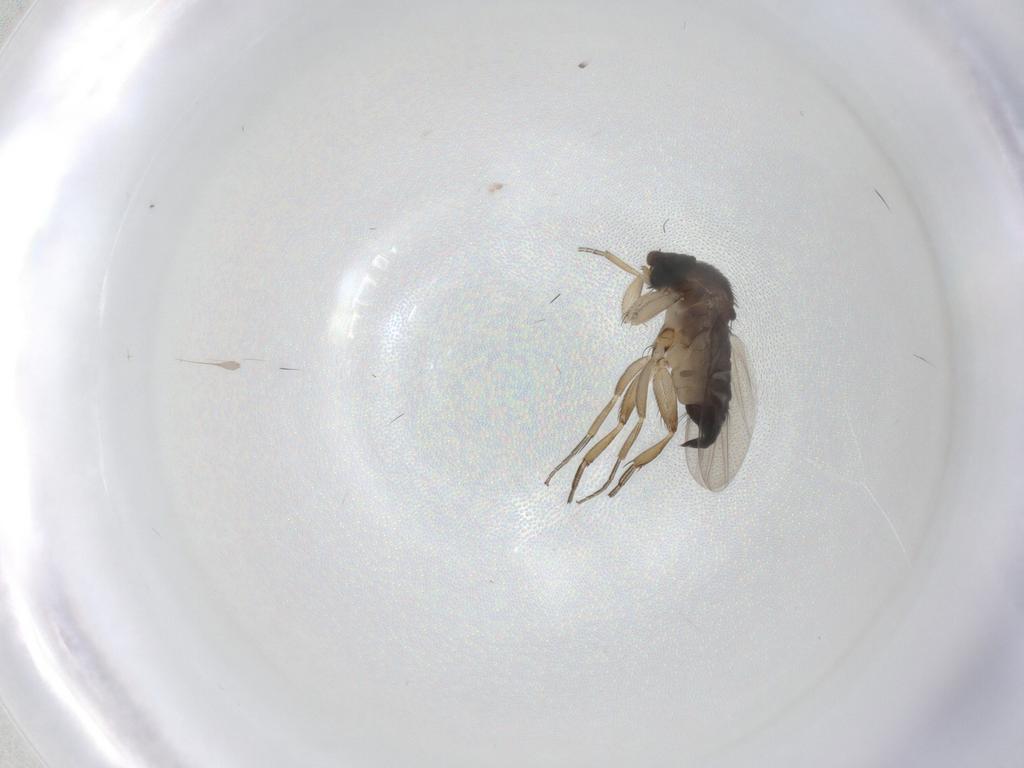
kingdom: Animalia
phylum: Arthropoda
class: Insecta
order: Diptera
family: Phoridae
